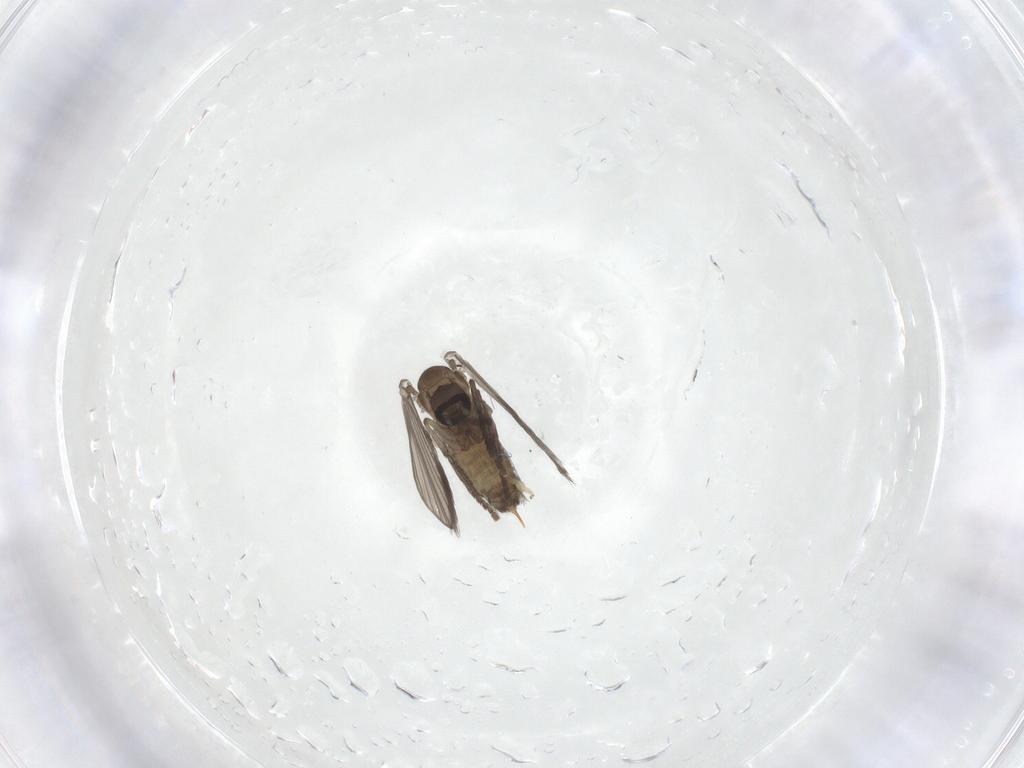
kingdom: Animalia
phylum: Arthropoda
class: Insecta
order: Diptera
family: Psychodidae
